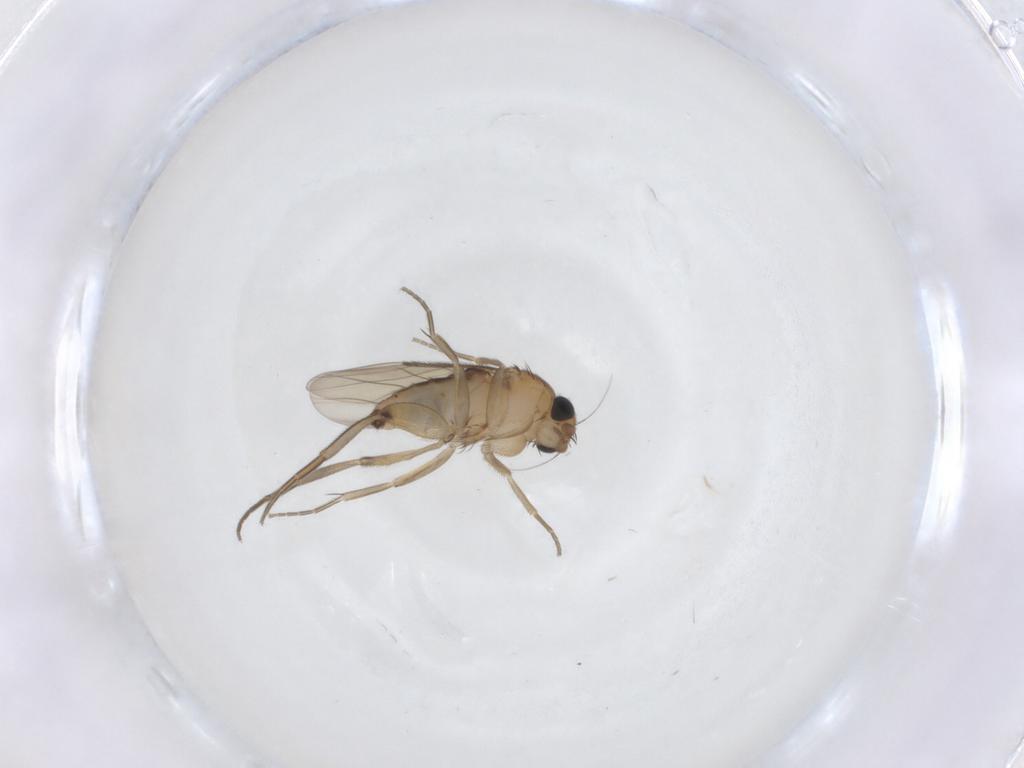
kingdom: Animalia
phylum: Arthropoda
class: Insecta
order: Diptera
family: Phoridae
